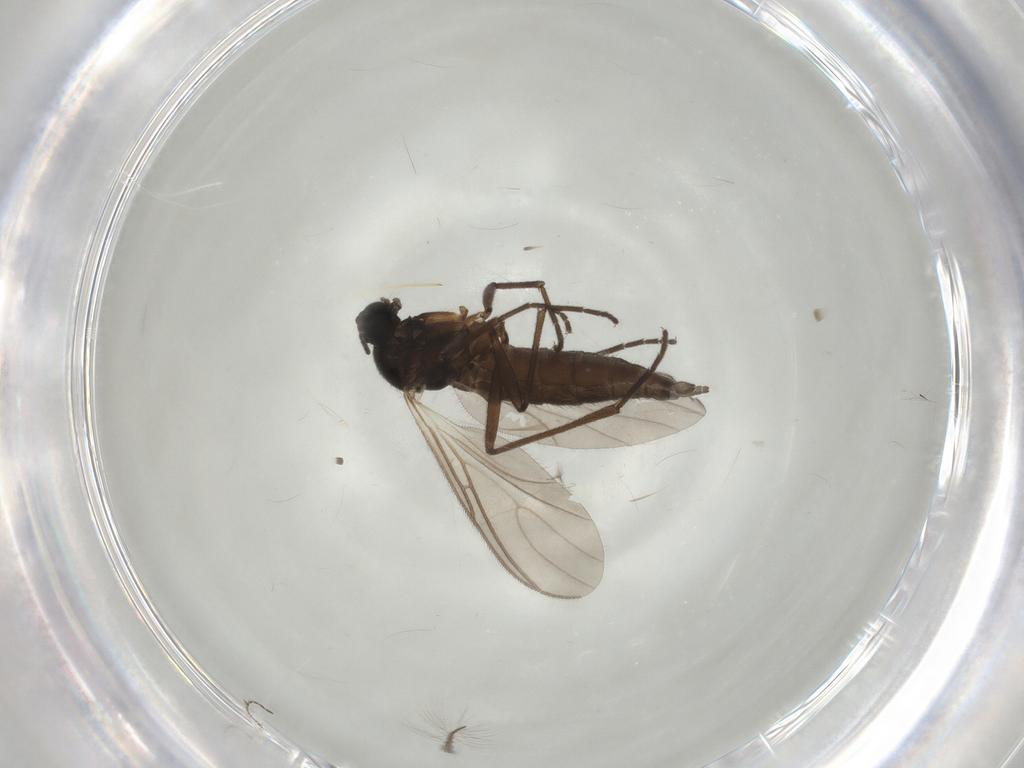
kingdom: Animalia
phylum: Arthropoda
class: Insecta
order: Diptera
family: Sciaridae
